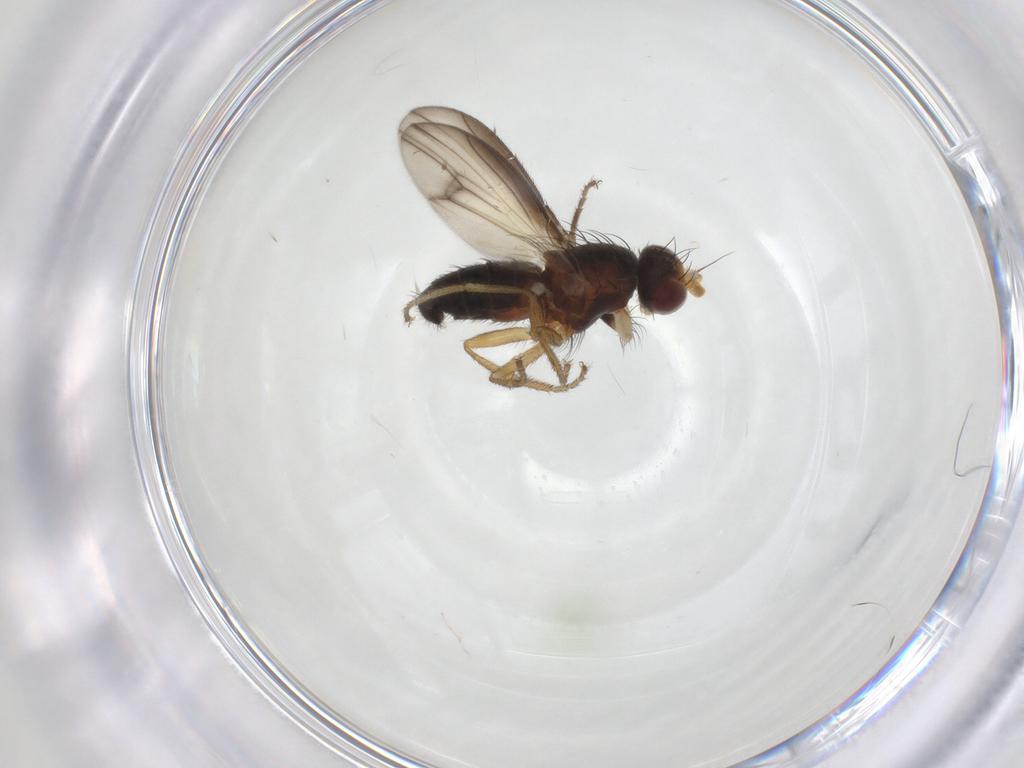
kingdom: Animalia
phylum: Arthropoda
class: Insecta
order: Diptera
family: Heleomyzidae
